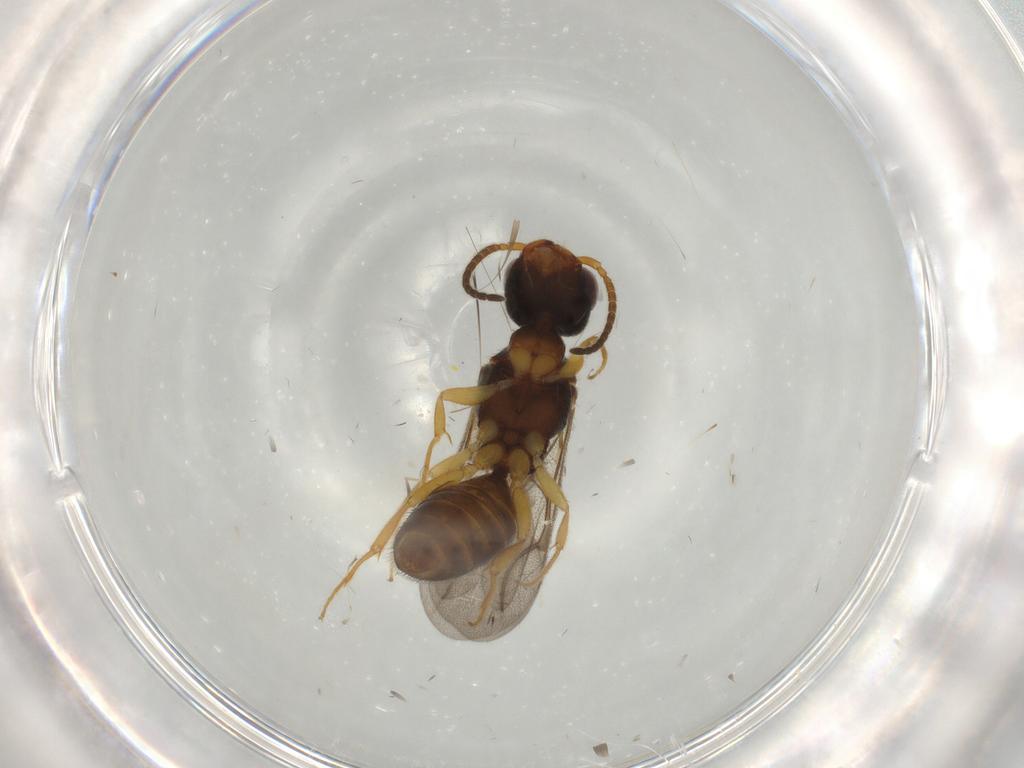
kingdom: Animalia
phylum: Arthropoda
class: Insecta
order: Hymenoptera
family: Bethylidae
